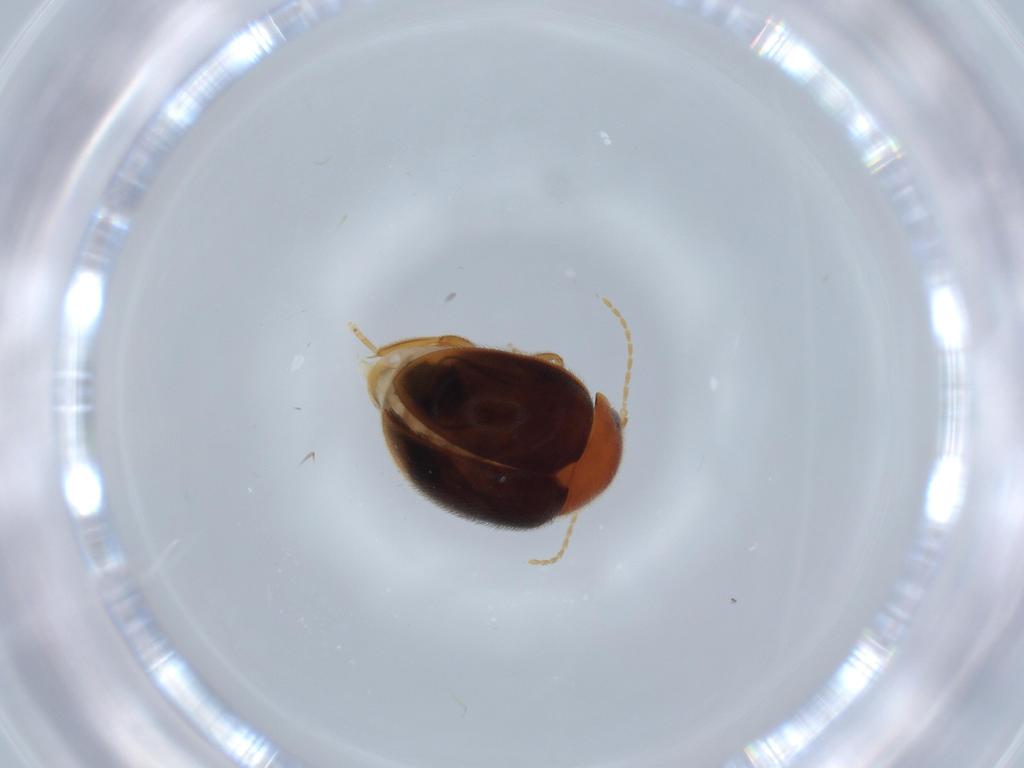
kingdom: Animalia
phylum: Arthropoda
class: Insecta
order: Coleoptera
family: Scirtidae
